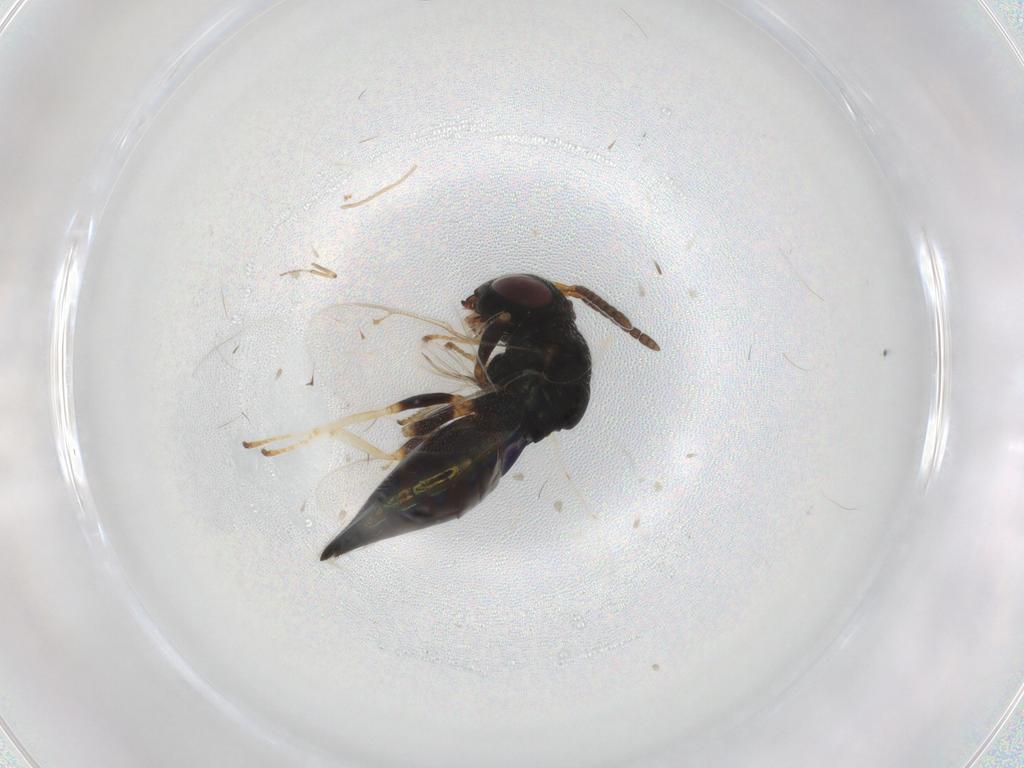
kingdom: Animalia
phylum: Arthropoda
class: Insecta
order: Hymenoptera
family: Pteromalidae
